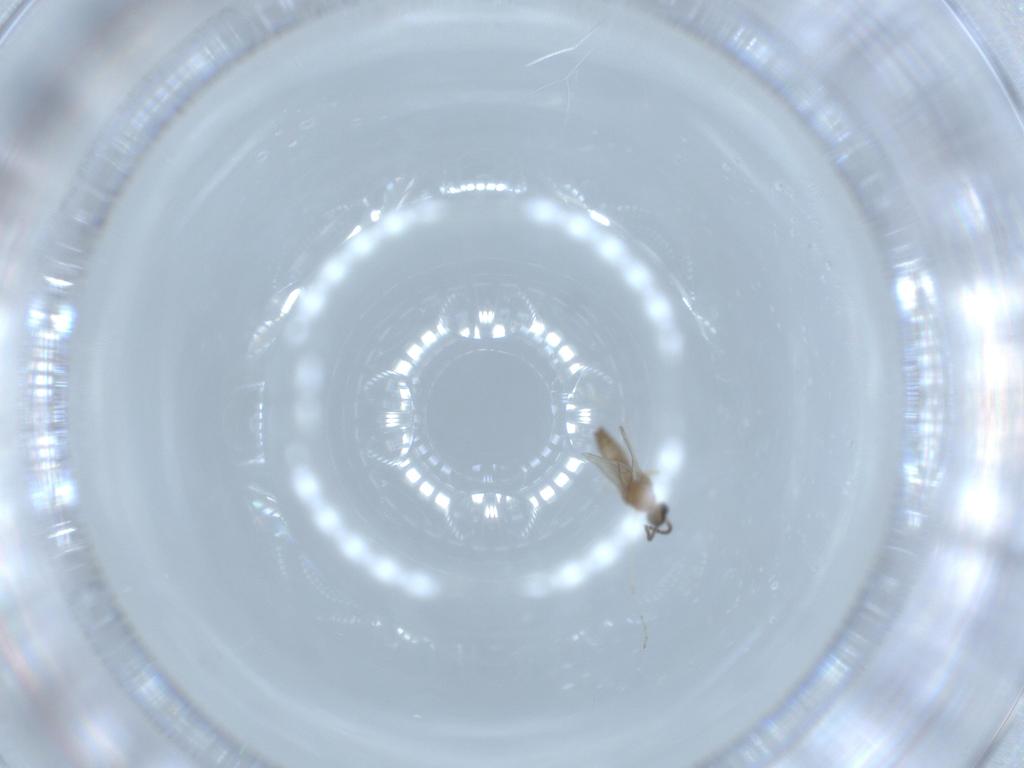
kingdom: Animalia
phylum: Arthropoda
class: Insecta
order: Diptera
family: Cecidomyiidae
